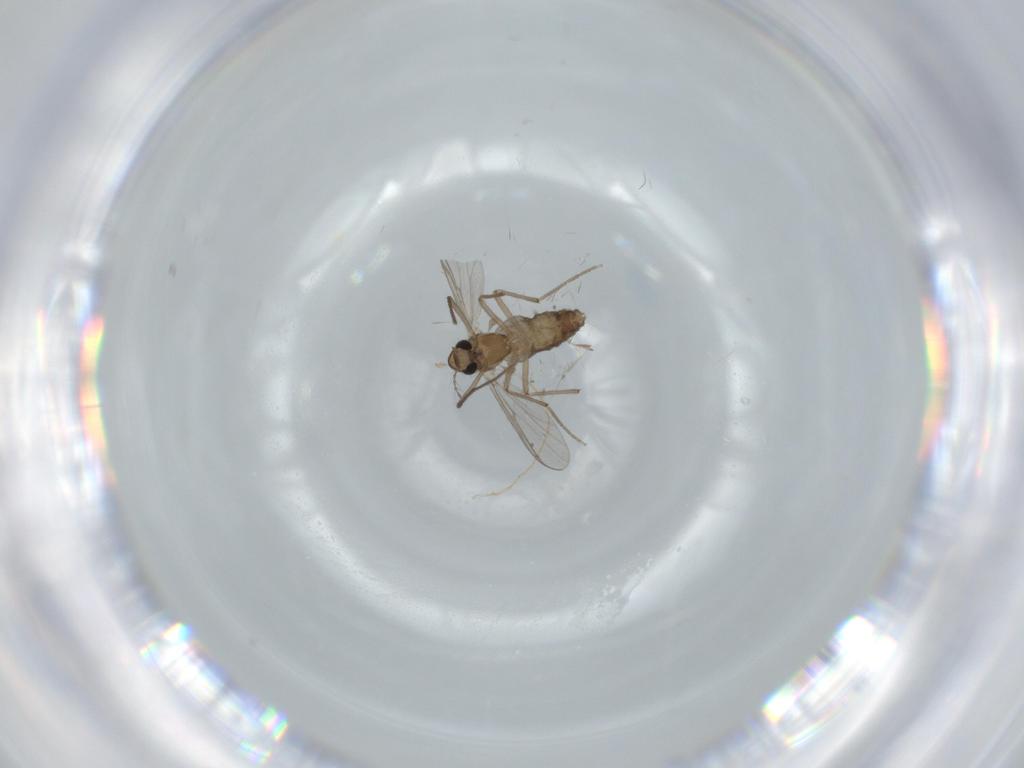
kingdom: Animalia
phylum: Arthropoda
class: Insecta
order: Diptera
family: Chironomidae
